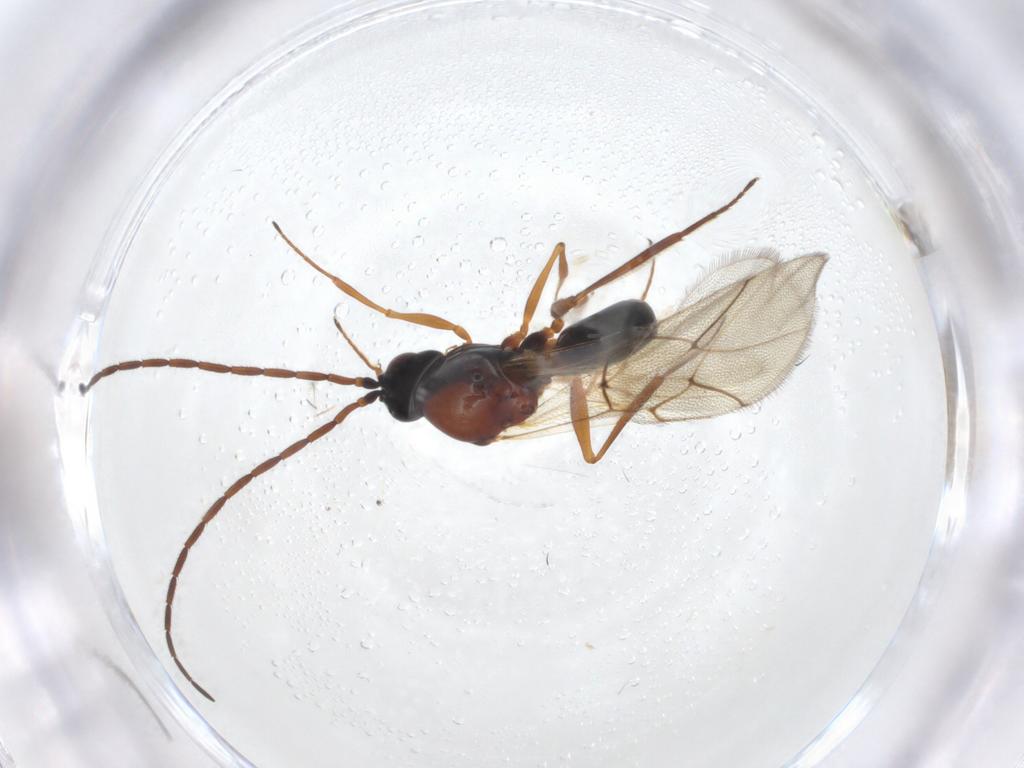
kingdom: Animalia
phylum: Arthropoda
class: Insecta
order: Hymenoptera
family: Figitidae
